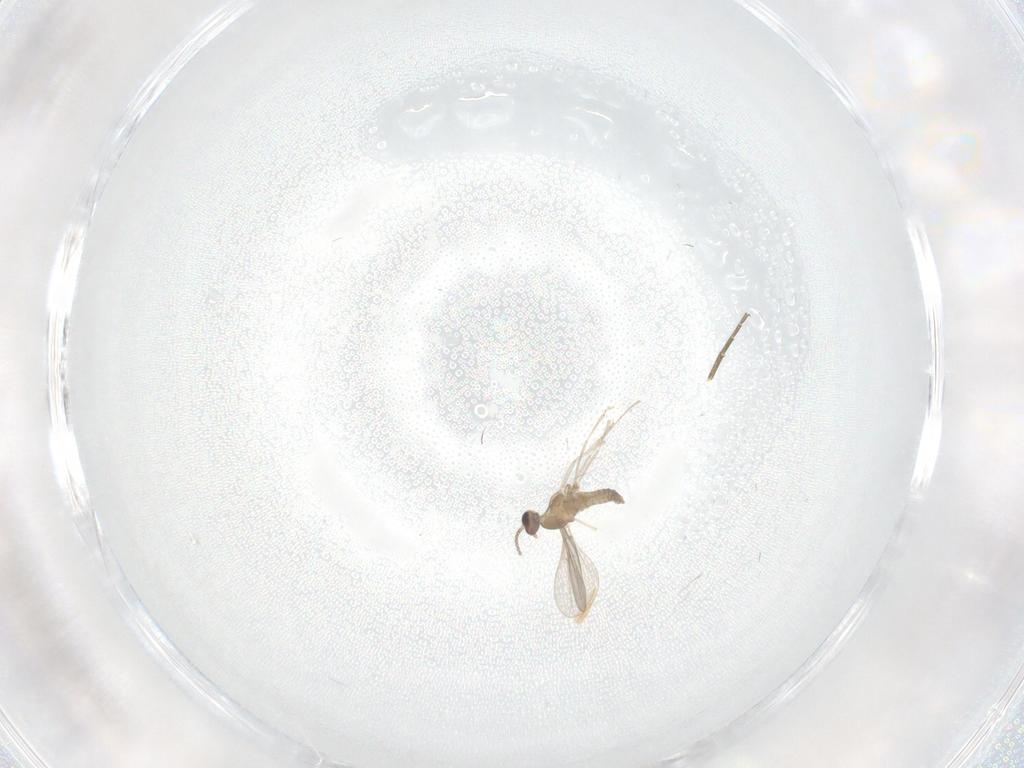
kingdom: Animalia
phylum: Arthropoda
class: Insecta
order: Diptera
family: Cecidomyiidae
